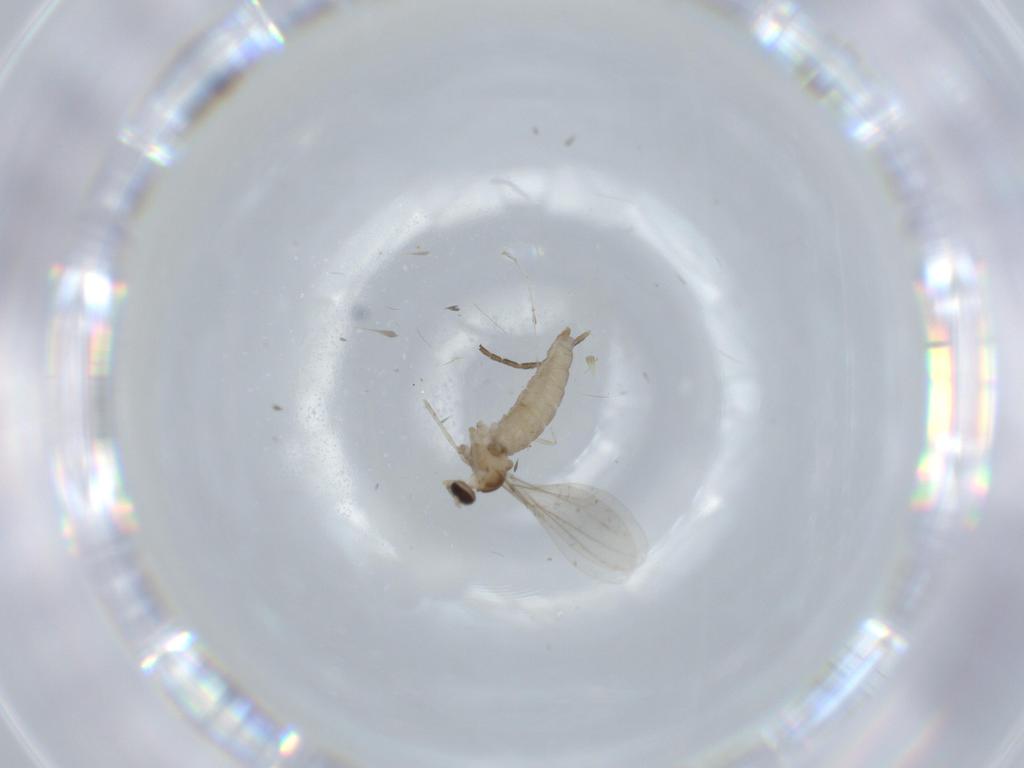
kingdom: Animalia
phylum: Arthropoda
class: Insecta
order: Diptera
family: Cecidomyiidae
